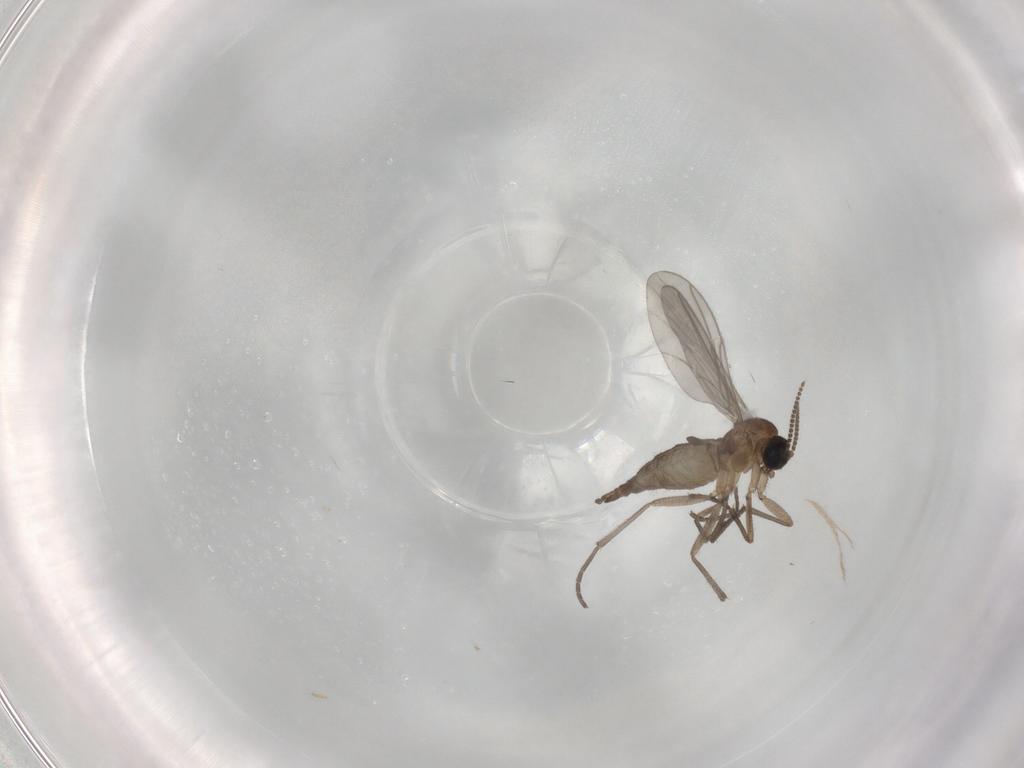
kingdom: Animalia
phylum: Arthropoda
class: Insecta
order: Diptera
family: Sciaridae
